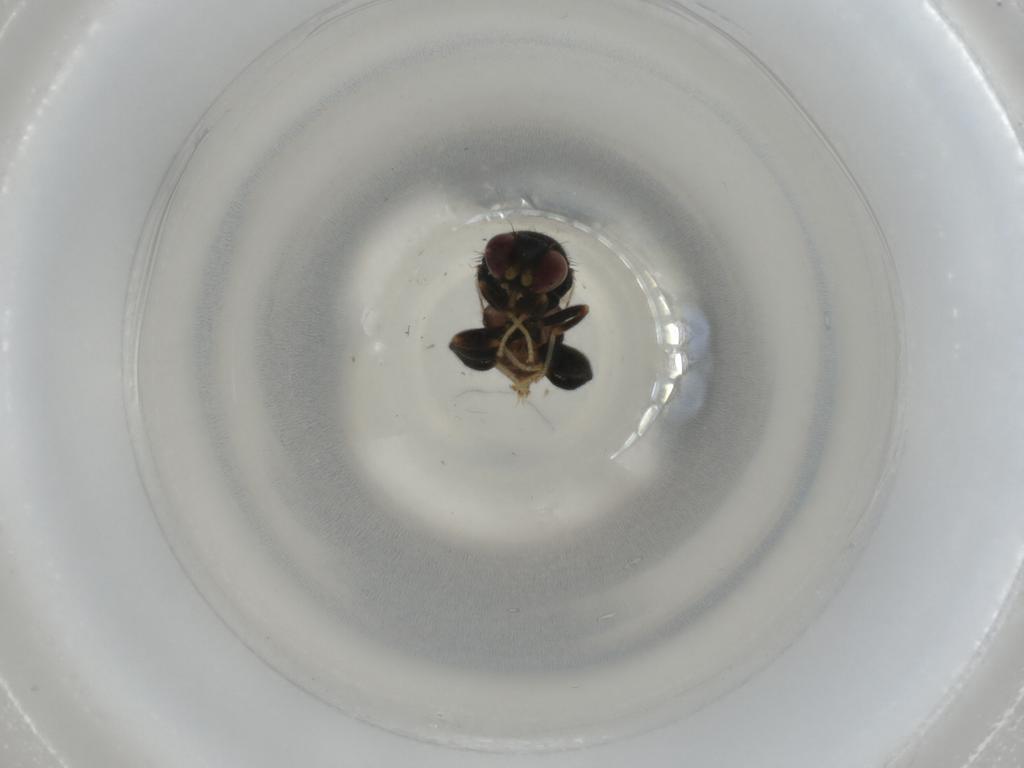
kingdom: Animalia
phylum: Arthropoda
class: Insecta
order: Diptera
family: Chloropidae
